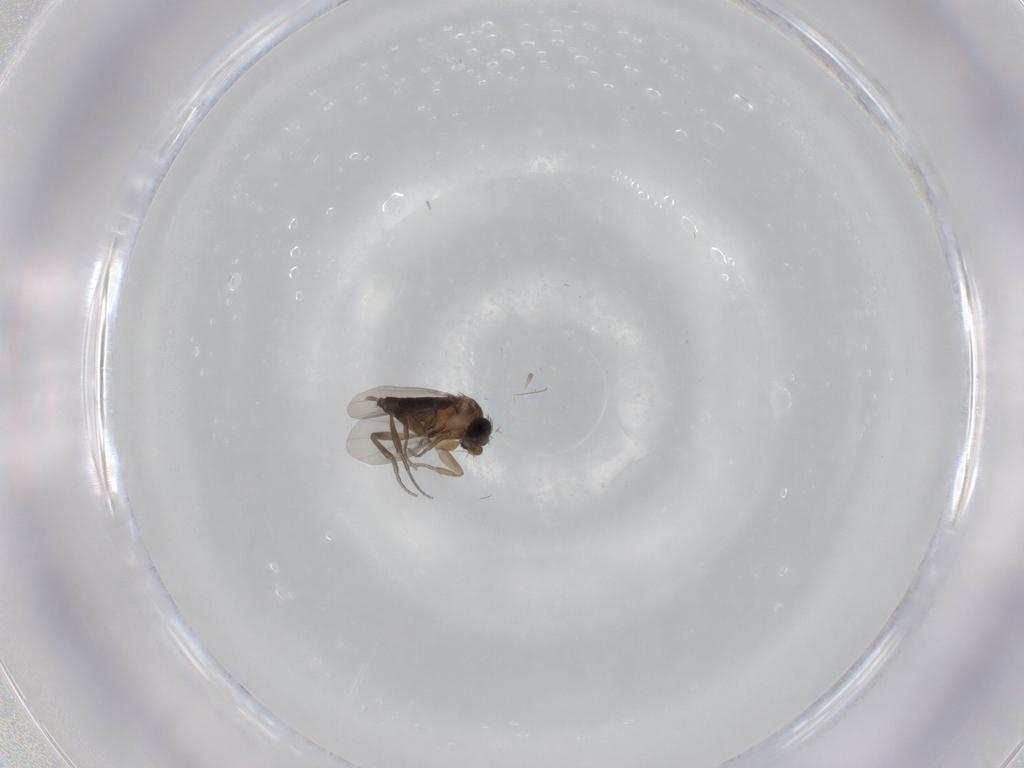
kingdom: Animalia
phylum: Arthropoda
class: Insecta
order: Diptera
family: Phoridae
